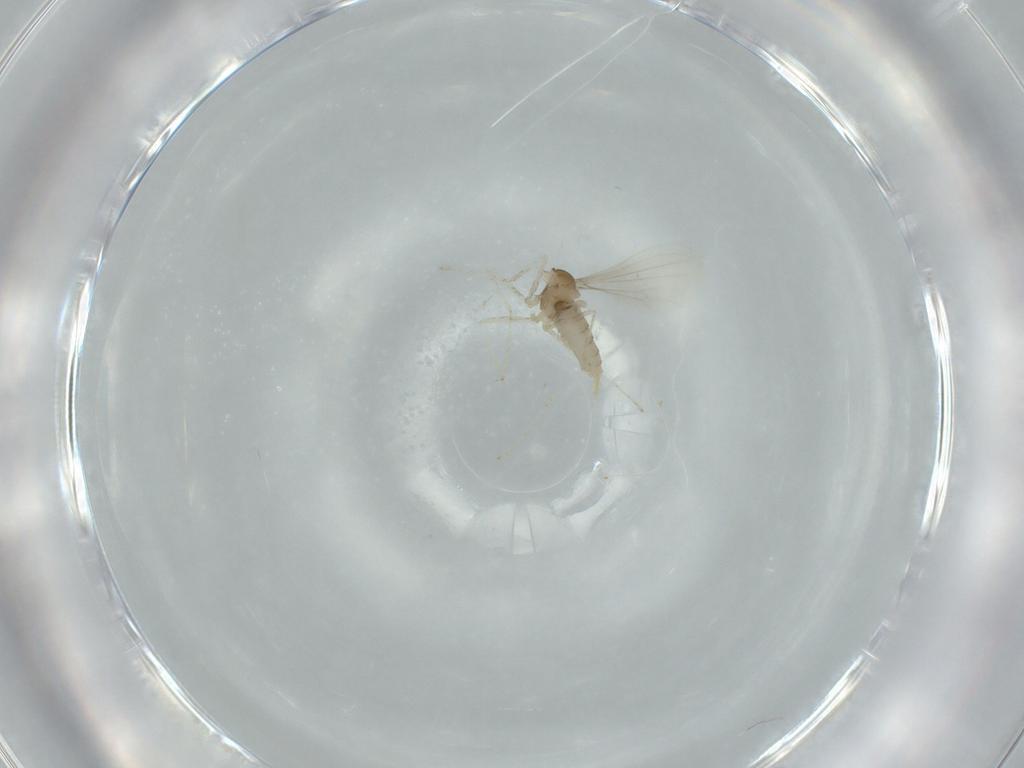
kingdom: Animalia
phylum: Arthropoda
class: Insecta
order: Diptera
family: Cecidomyiidae
